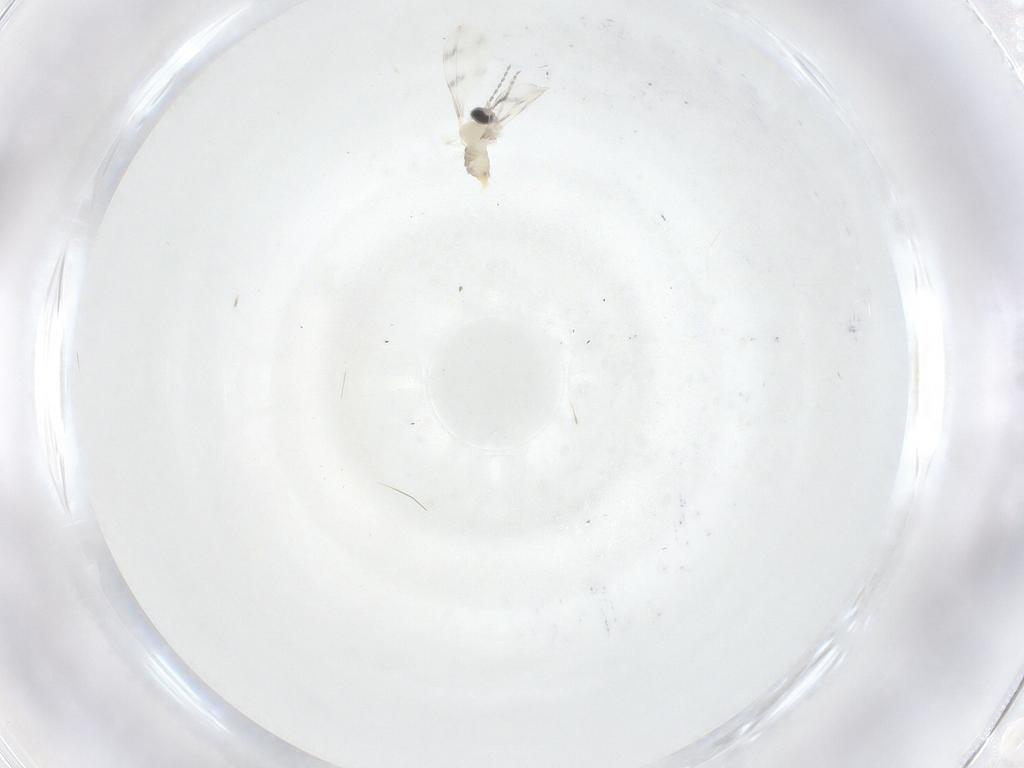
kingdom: Animalia
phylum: Arthropoda
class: Insecta
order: Diptera
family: Cecidomyiidae
